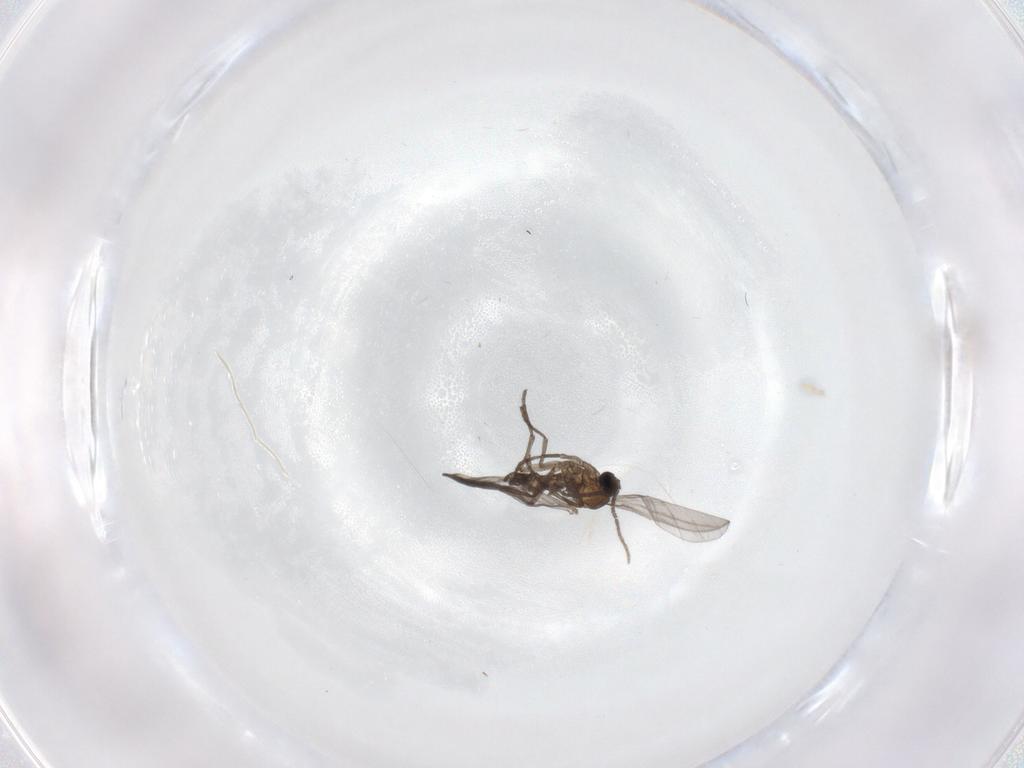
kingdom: Animalia
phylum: Arthropoda
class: Insecta
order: Diptera
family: Sciaridae
